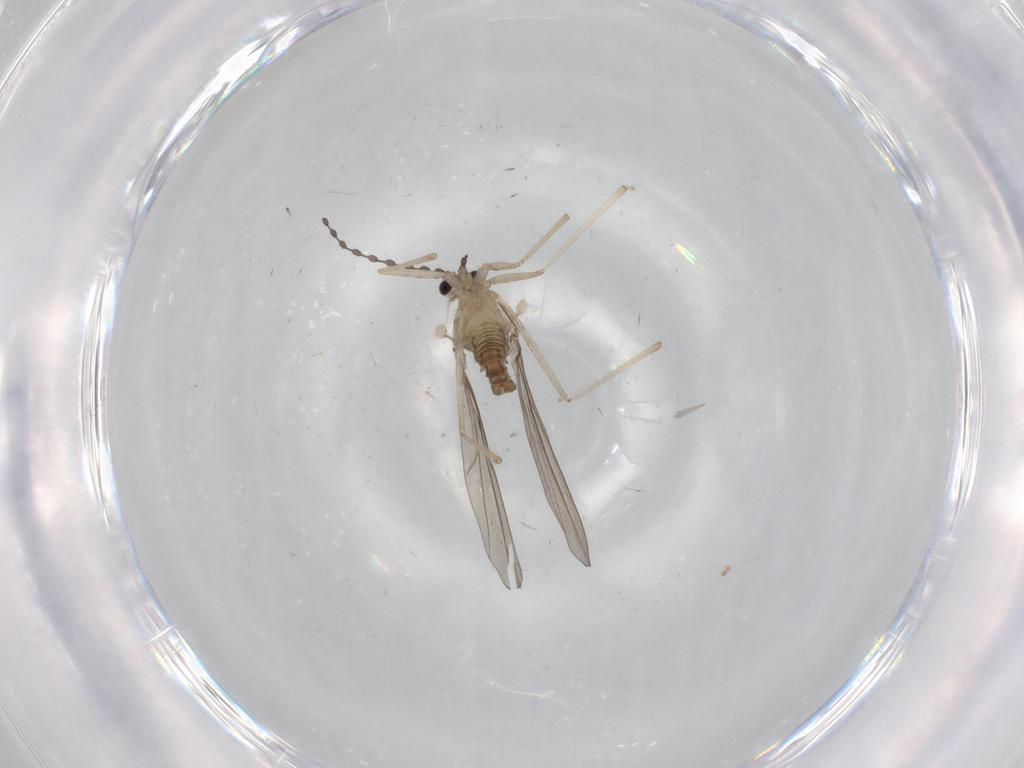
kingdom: Animalia
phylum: Arthropoda
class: Insecta
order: Diptera
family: Cecidomyiidae
